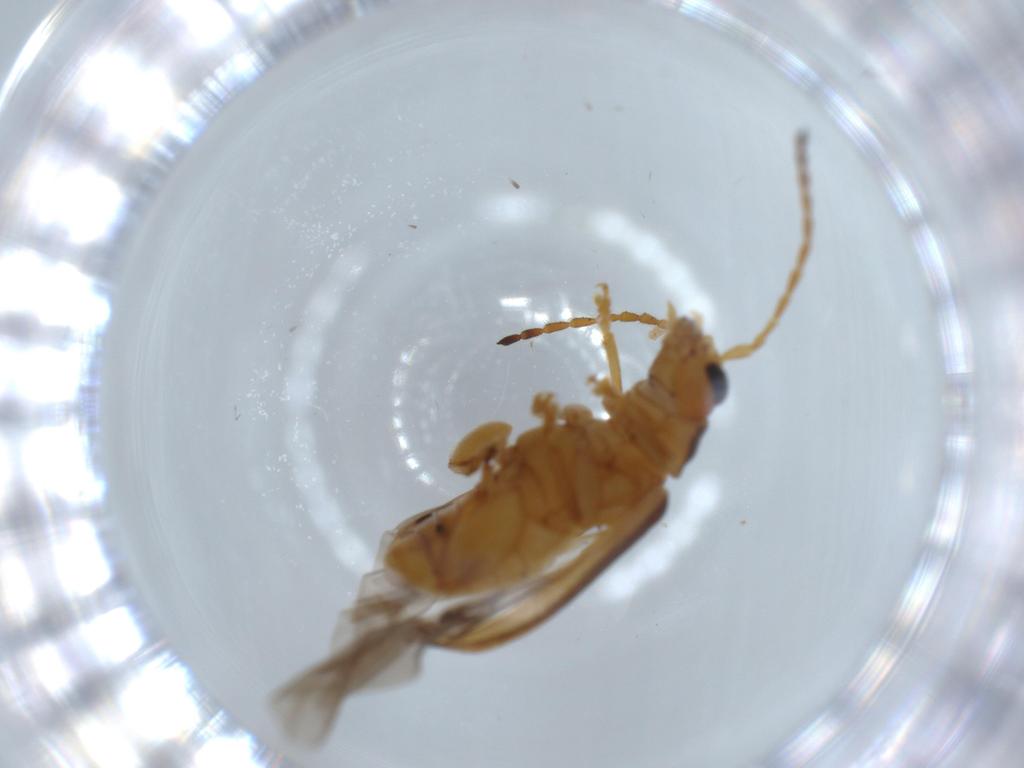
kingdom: Animalia
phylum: Arthropoda
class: Insecta
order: Coleoptera
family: Chrysomelidae
